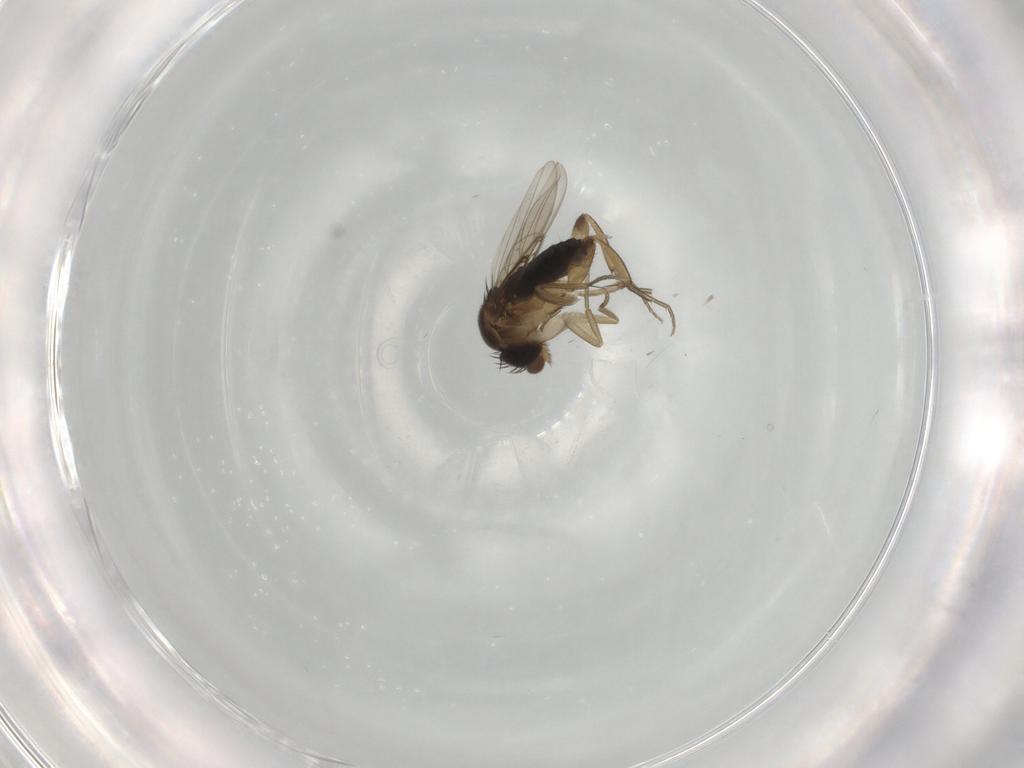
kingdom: Animalia
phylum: Arthropoda
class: Insecta
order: Diptera
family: Phoridae
